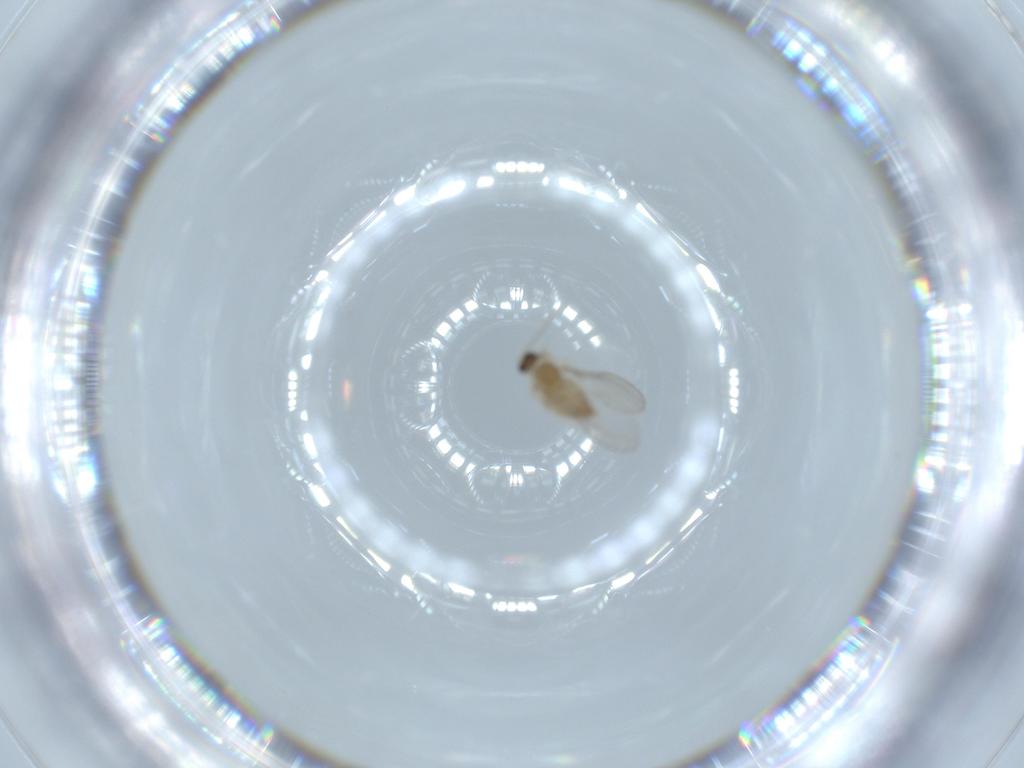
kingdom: Animalia
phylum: Arthropoda
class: Insecta
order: Diptera
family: Cecidomyiidae
